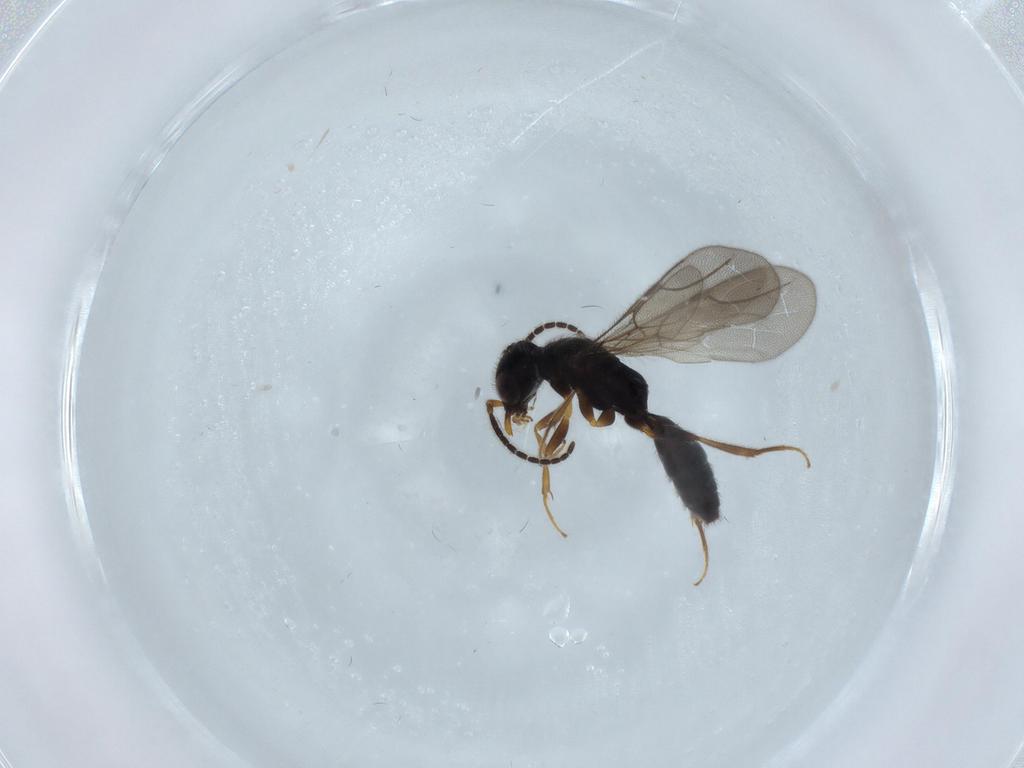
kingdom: Animalia
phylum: Arthropoda
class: Insecta
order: Hymenoptera
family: Bethylidae
